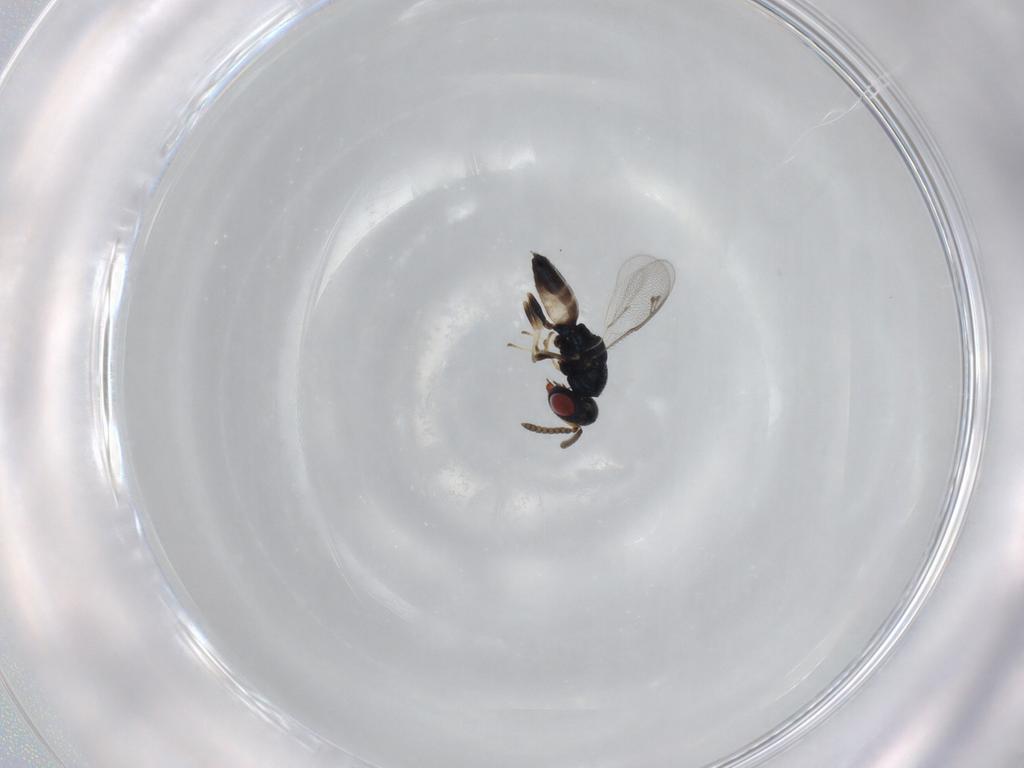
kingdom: Animalia
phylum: Arthropoda
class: Insecta
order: Hymenoptera
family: Pteromalidae
